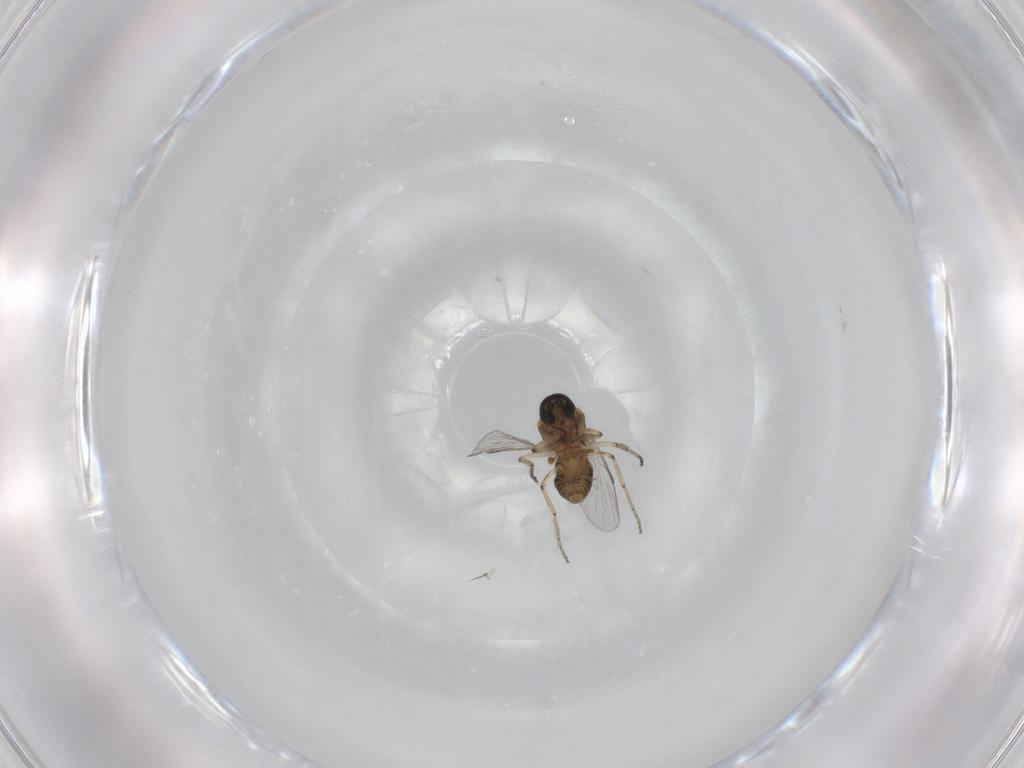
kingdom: Animalia
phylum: Arthropoda
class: Insecta
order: Diptera
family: Ceratopogonidae
